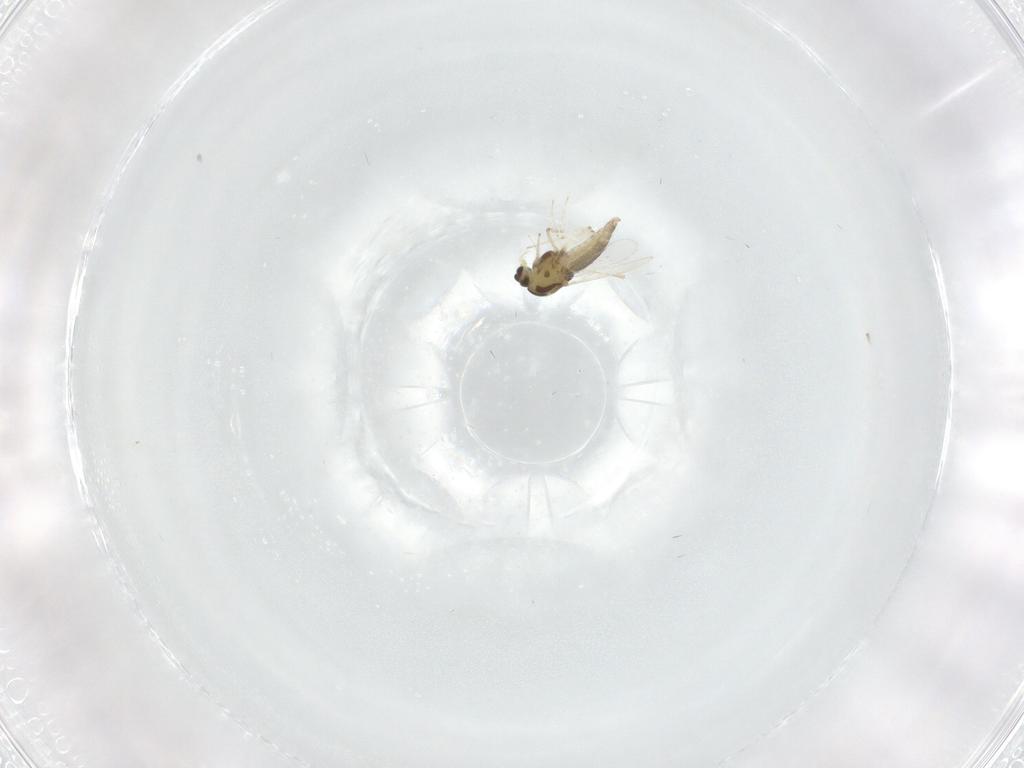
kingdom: Animalia
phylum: Arthropoda
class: Insecta
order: Diptera
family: Chironomidae
